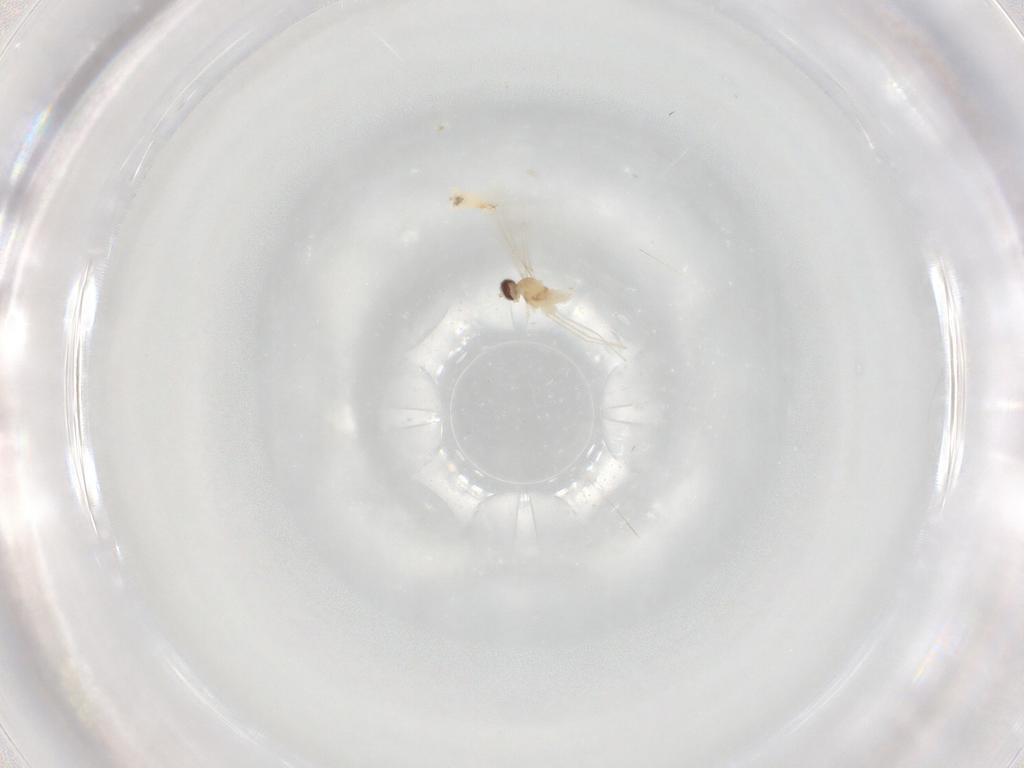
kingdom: Animalia
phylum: Arthropoda
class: Insecta
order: Diptera
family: Cecidomyiidae
